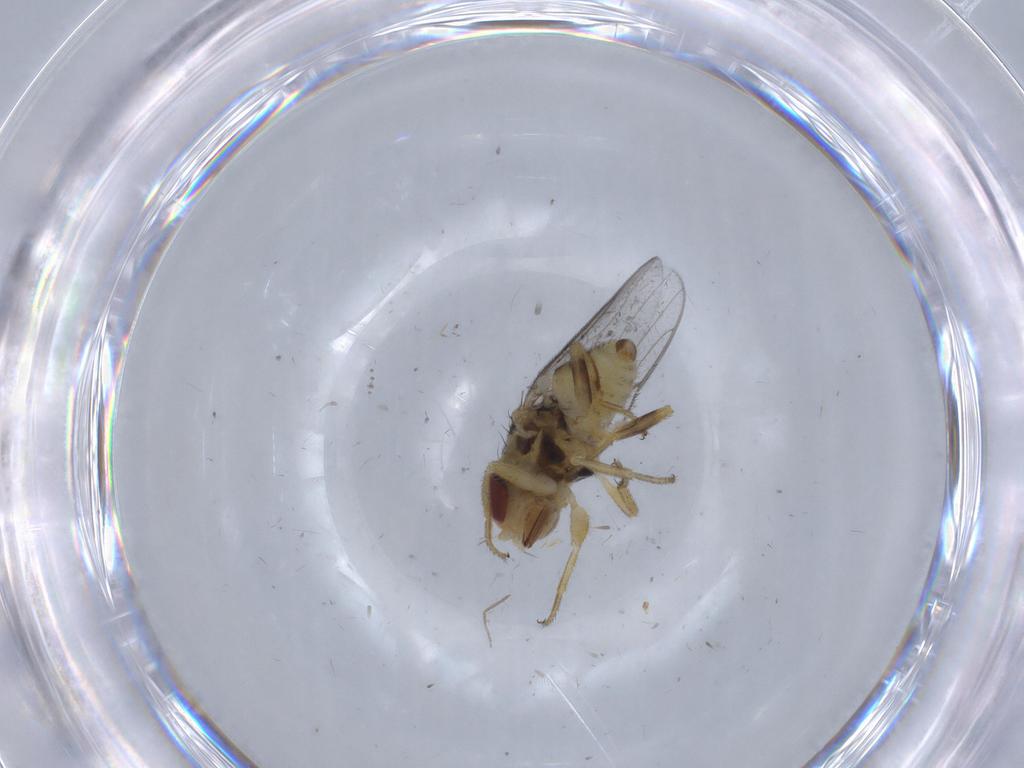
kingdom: Animalia
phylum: Arthropoda
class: Insecta
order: Diptera
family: Chloropidae
